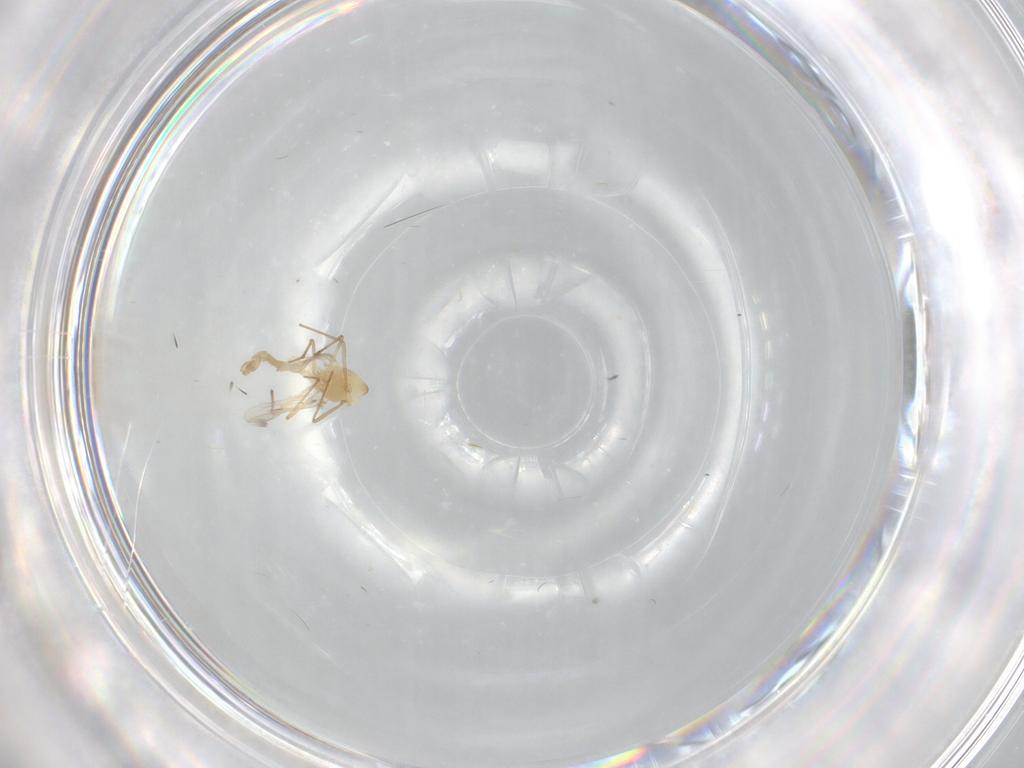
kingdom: Animalia
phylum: Arthropoda
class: Insecta
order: Diptera
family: Chironomidae
